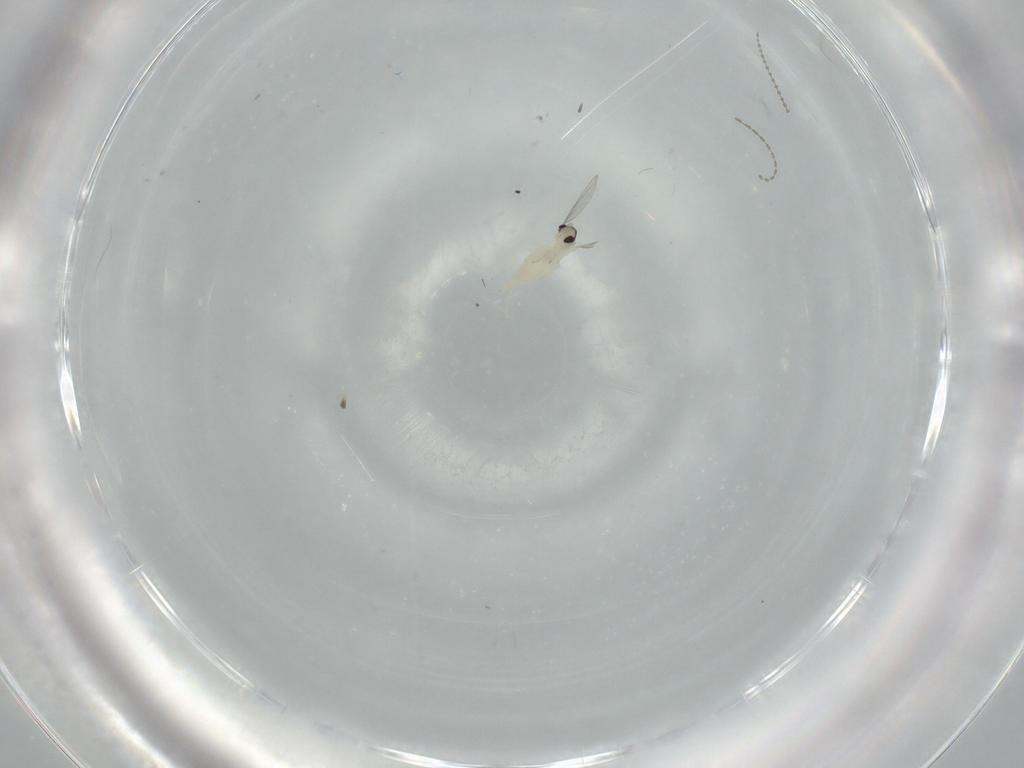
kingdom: Animalia
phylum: Arthropoda
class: Insecta
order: Diptera
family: Cecidomyiidae
